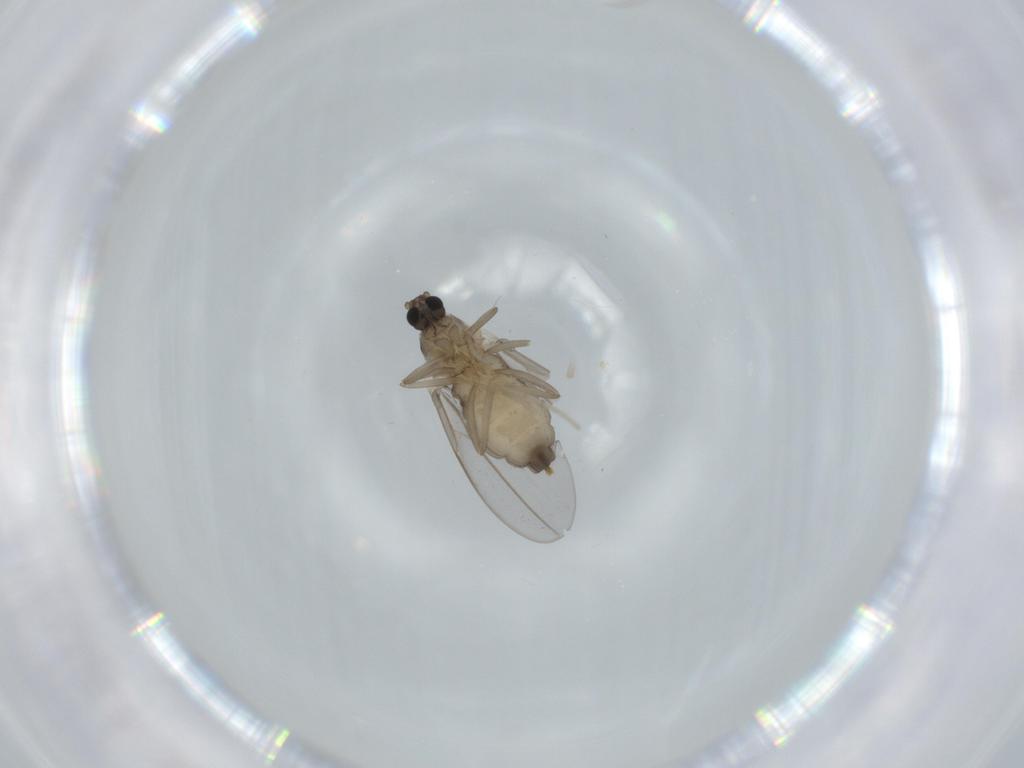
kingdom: Animalia
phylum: Arthropoda
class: Insecta
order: Diptera
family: Cecidomyiidae
